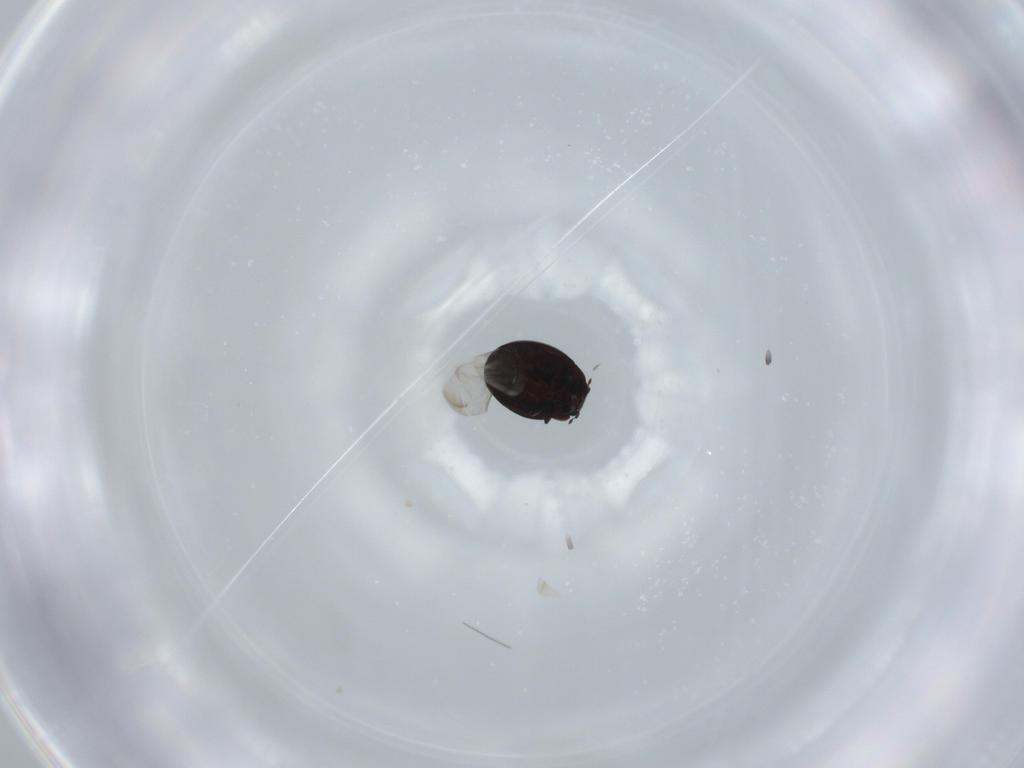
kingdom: Animalia
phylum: Arthropoda
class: Insecta
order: Coleoptera
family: Coccinellidae
